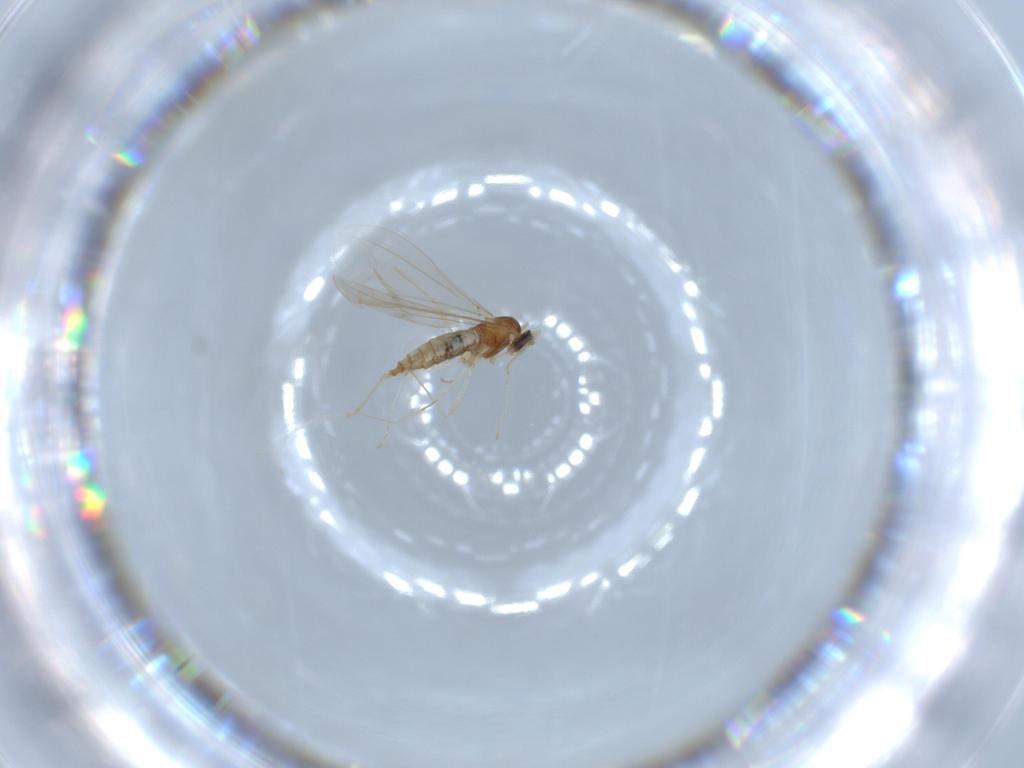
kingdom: Animalia
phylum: Arthropoda
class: Insecta
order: Diptera
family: Cecidomyiidae
